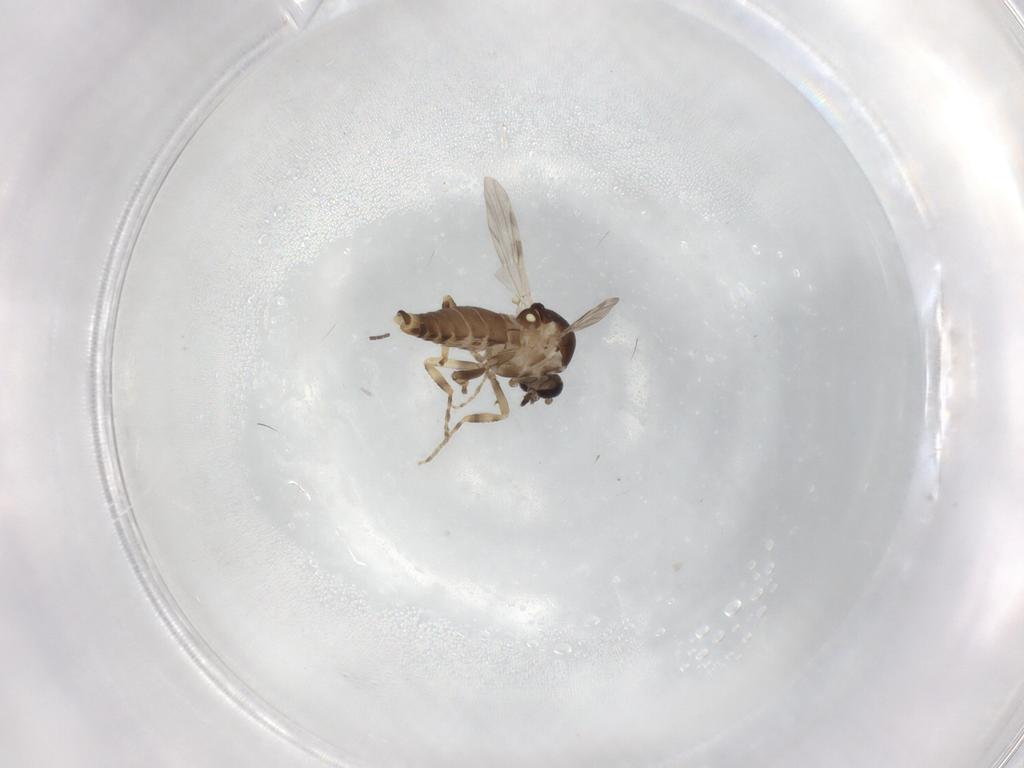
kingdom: Animalia
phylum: Arthropoda
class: Insecta
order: Diptera
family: Ceratopogonidae
